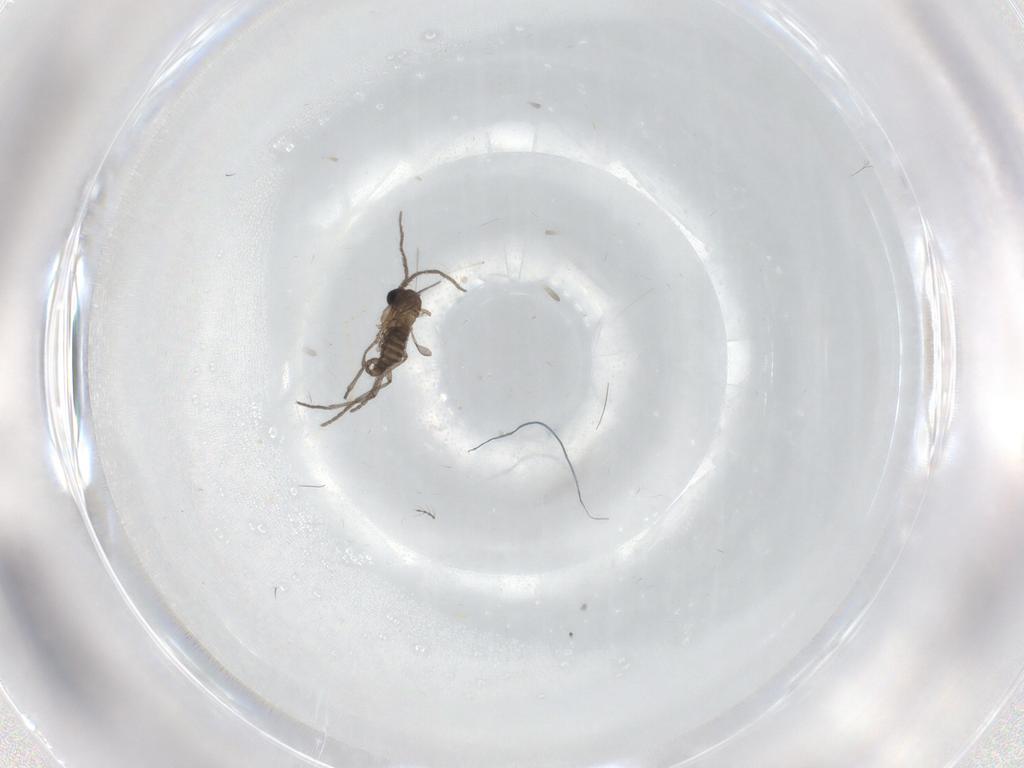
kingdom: Animalia
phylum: Arthropoda
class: Insecta
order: Diptera
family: Sciaridae
